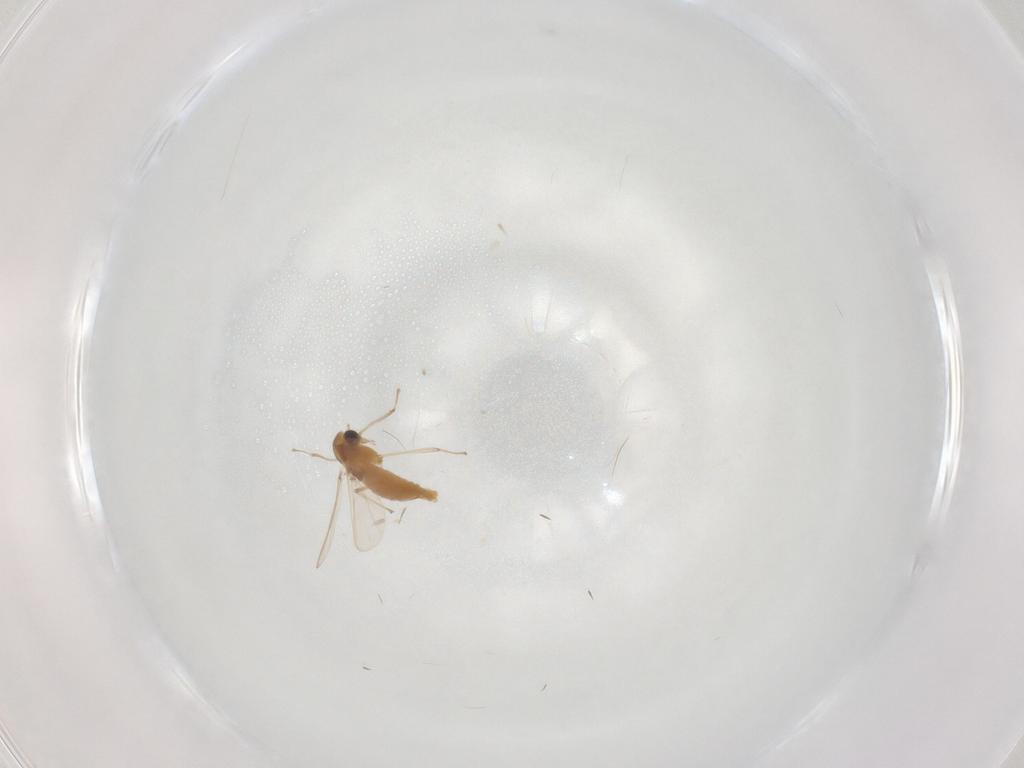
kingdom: Animalia
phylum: Arthropoda
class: Insecta
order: Diptera
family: Chironomidae
